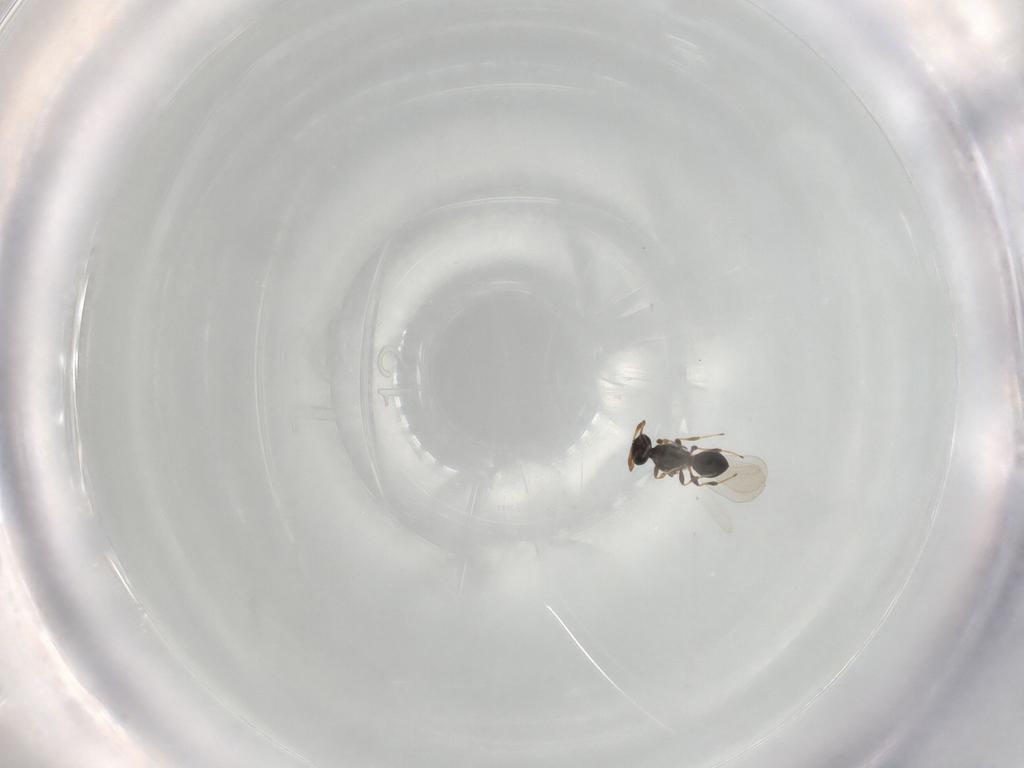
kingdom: Animalia
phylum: Arthropoda
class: Insecta
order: Hymenoptera
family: Platygastridae
